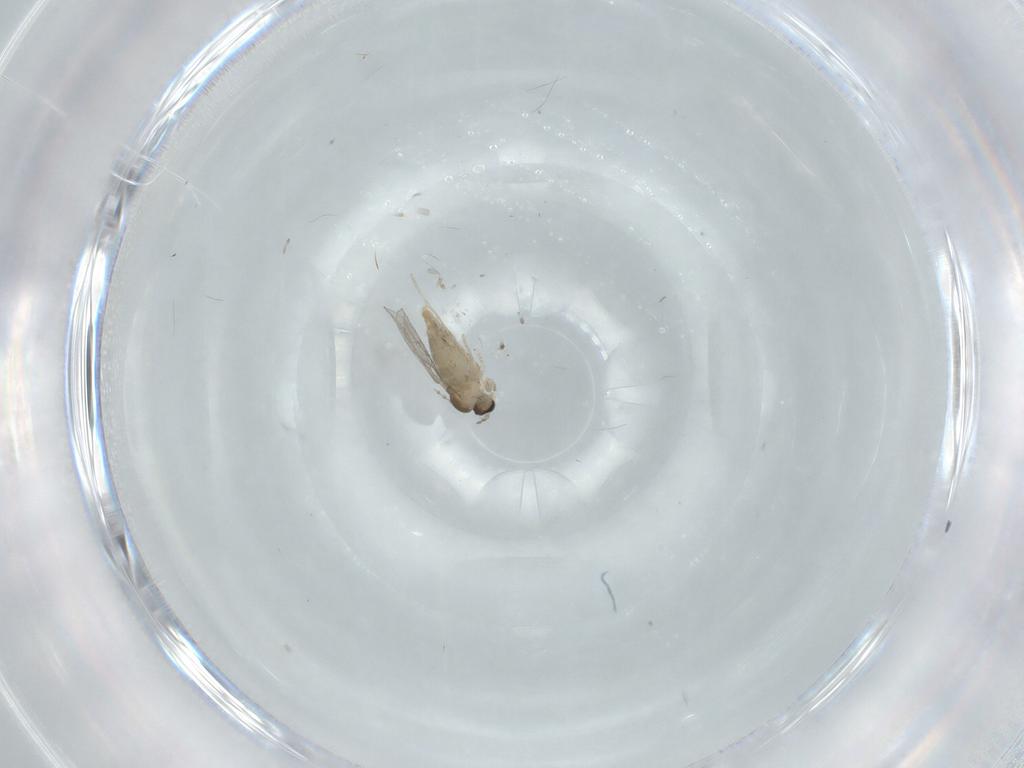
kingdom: Animalia
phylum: Arthropoda
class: Insecta
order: Diptera
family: Cecidomyiidae
